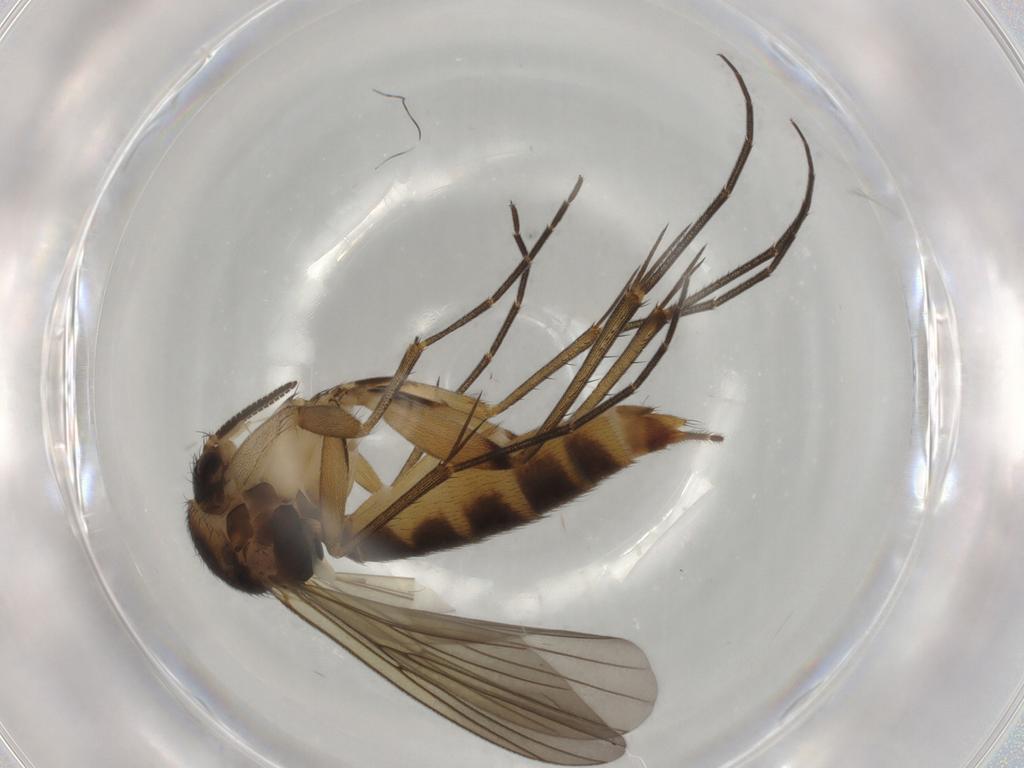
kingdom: Animalia
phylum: Arthropoda
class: Insecta
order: Diptera
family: Mycetophilidae
